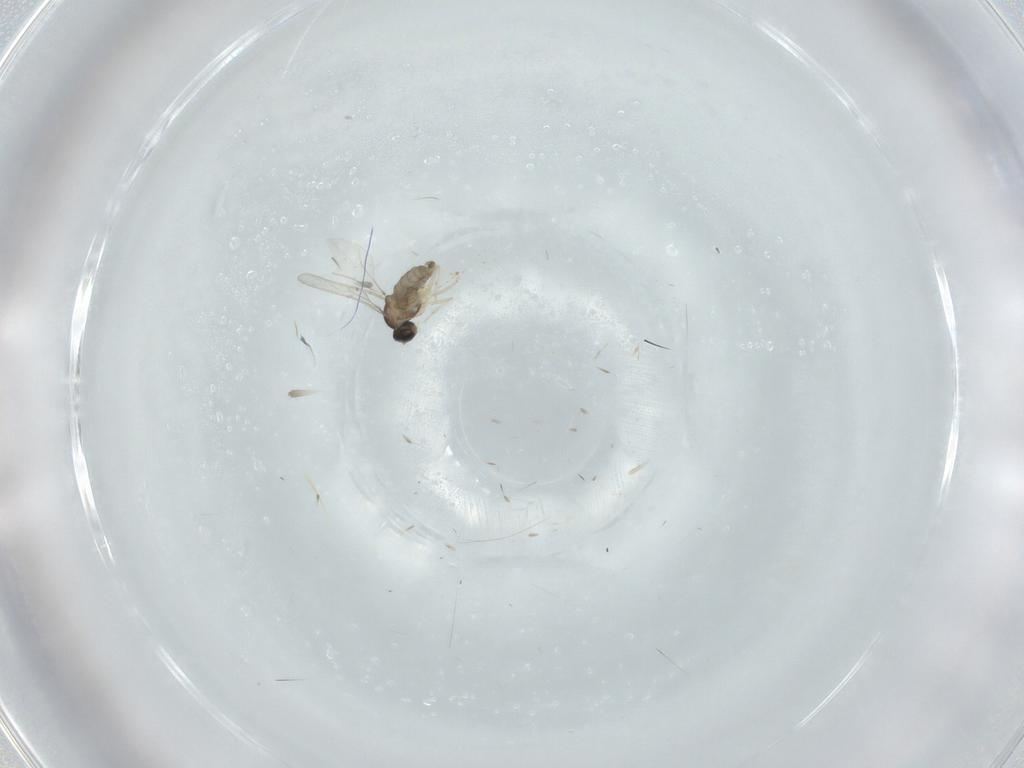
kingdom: Animalia
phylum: Arthropoda
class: Insecta
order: Diptera
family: Cecidomyiidae
